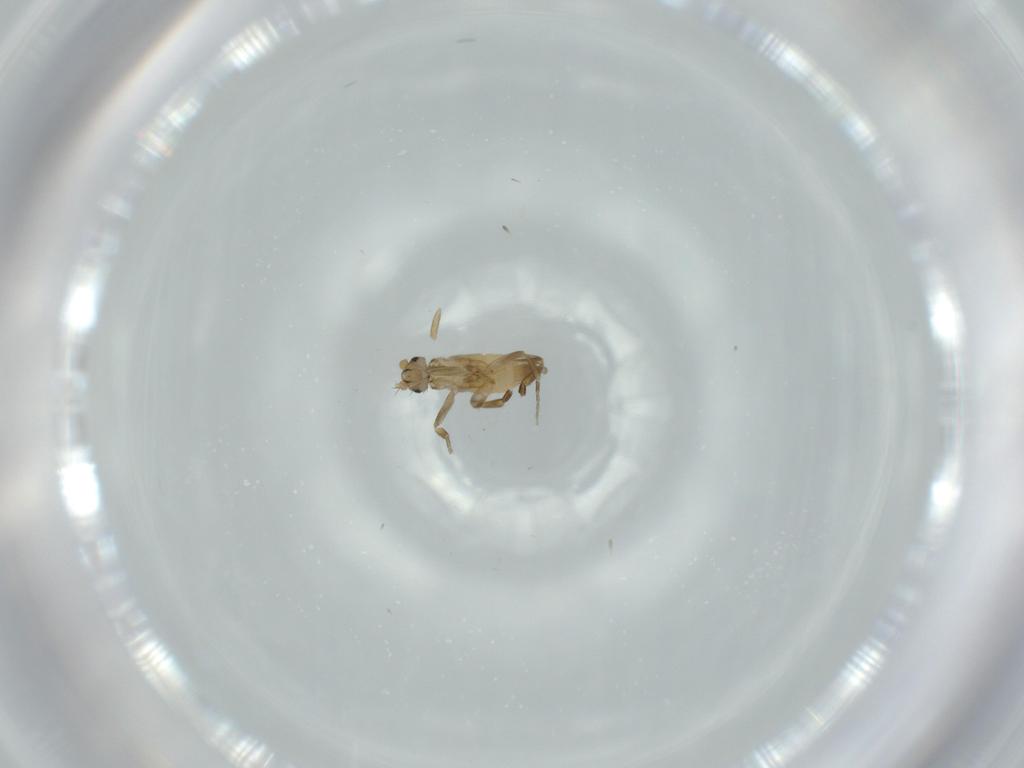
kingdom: Animalia
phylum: Arthropoda
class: Insecta
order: Diptera
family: Phoridae
